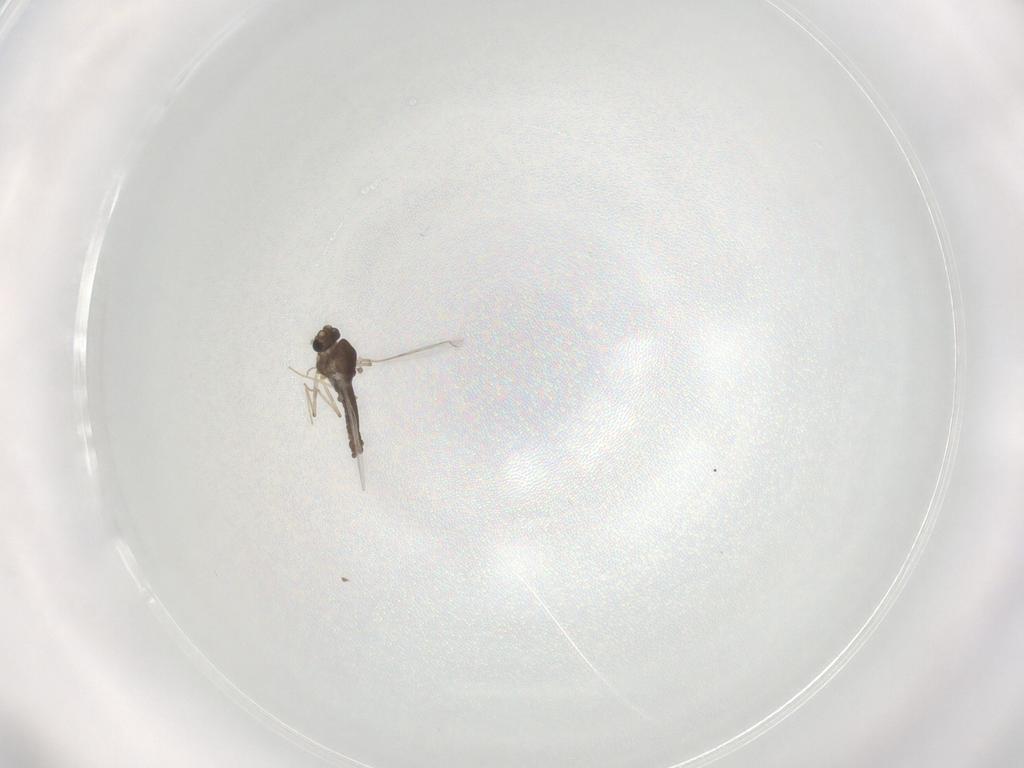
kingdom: Animalia
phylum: Arthropoda
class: Insecta
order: Diptera
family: Chironomidae
